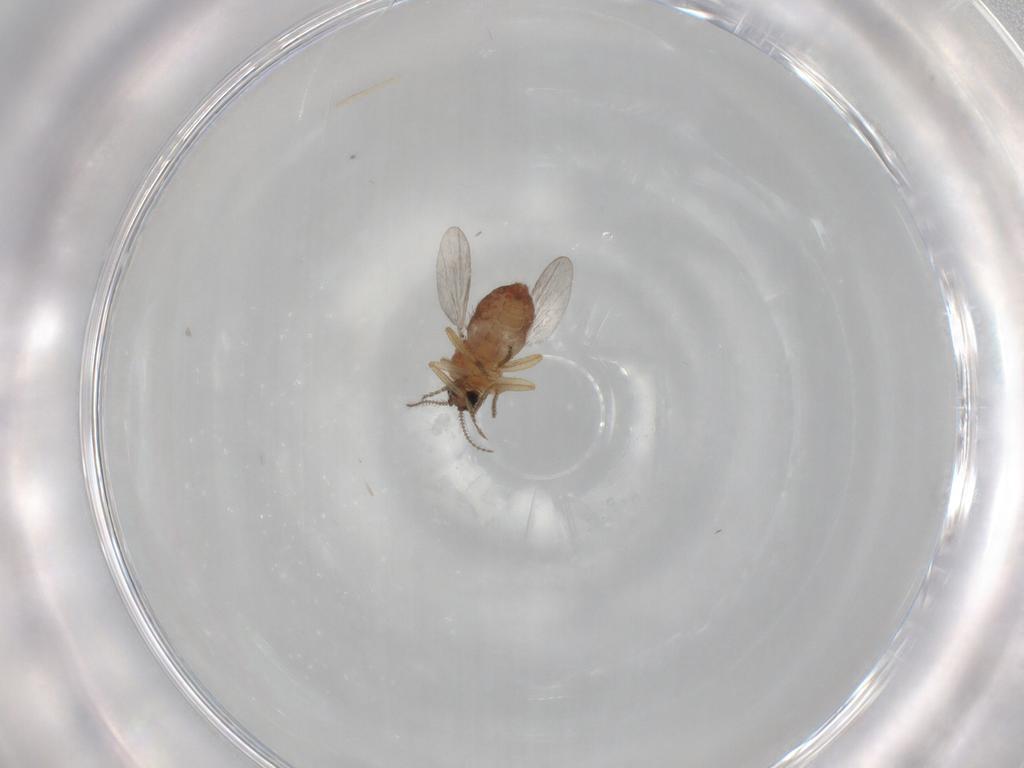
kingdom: Animalia
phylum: Arthropoda
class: Insecta
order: Diptera
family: Ceratopogonidae
